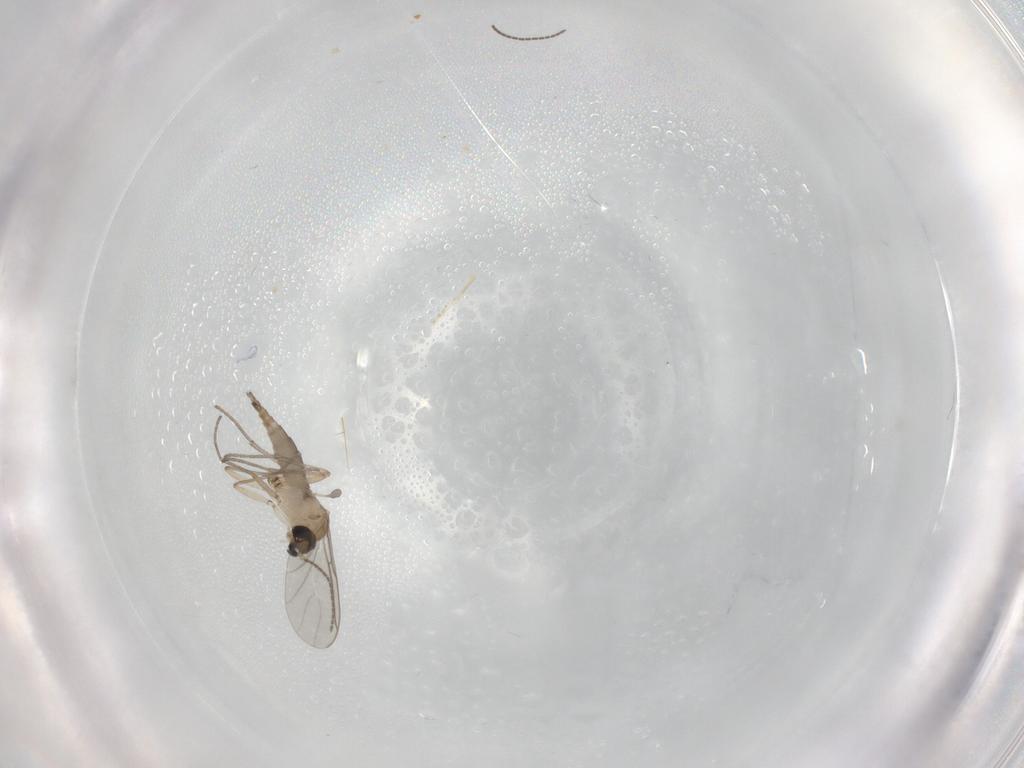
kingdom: Animalia
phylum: Arthropoda
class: Insecta
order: Diptera
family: Sciaridae
